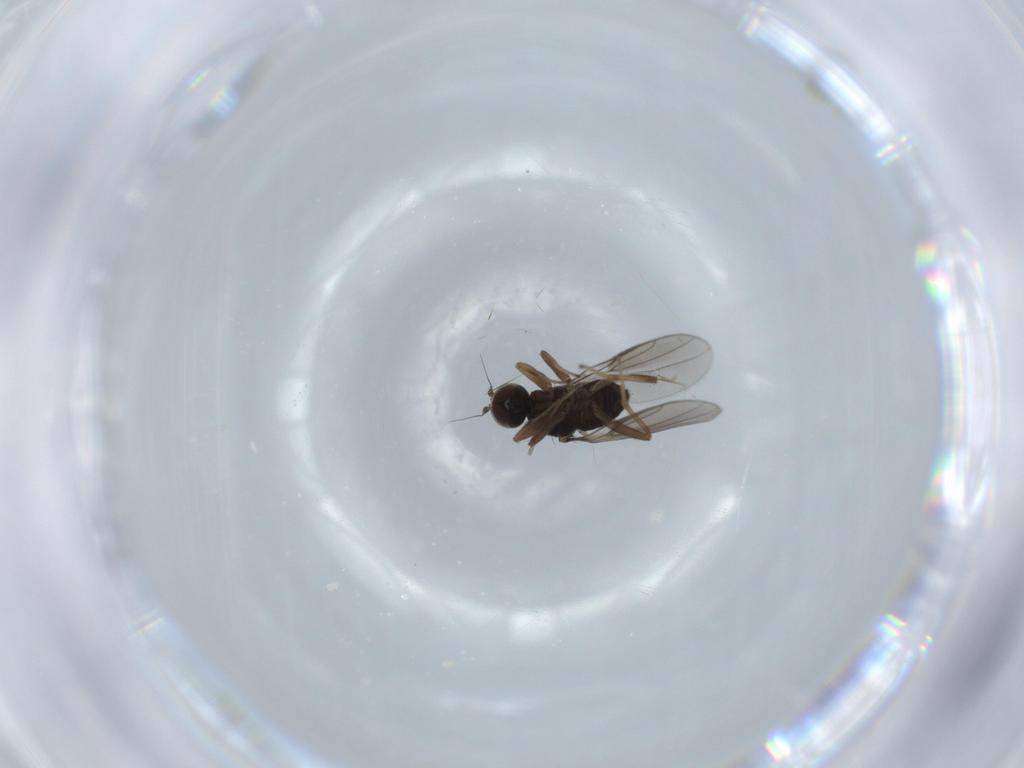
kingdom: Animalia
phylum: Arthropoda
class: Insecta
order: Diptera
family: Hybotidae
